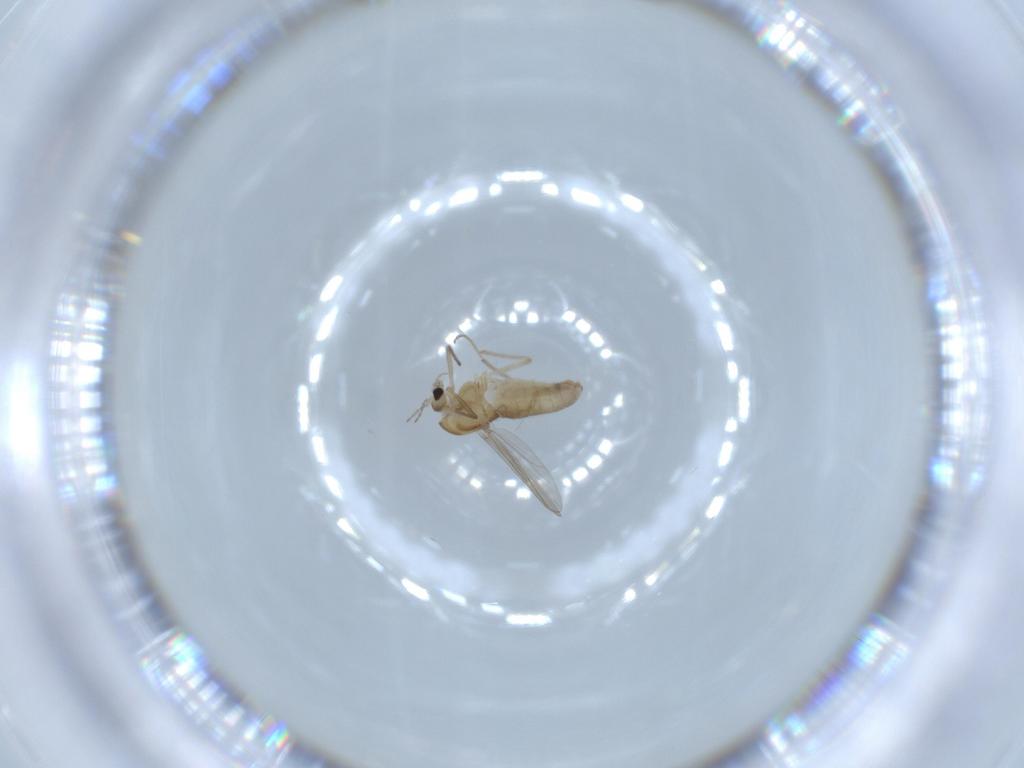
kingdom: Animalia
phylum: Arthropoda
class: Insecta
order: Diptera
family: Chironomidae
